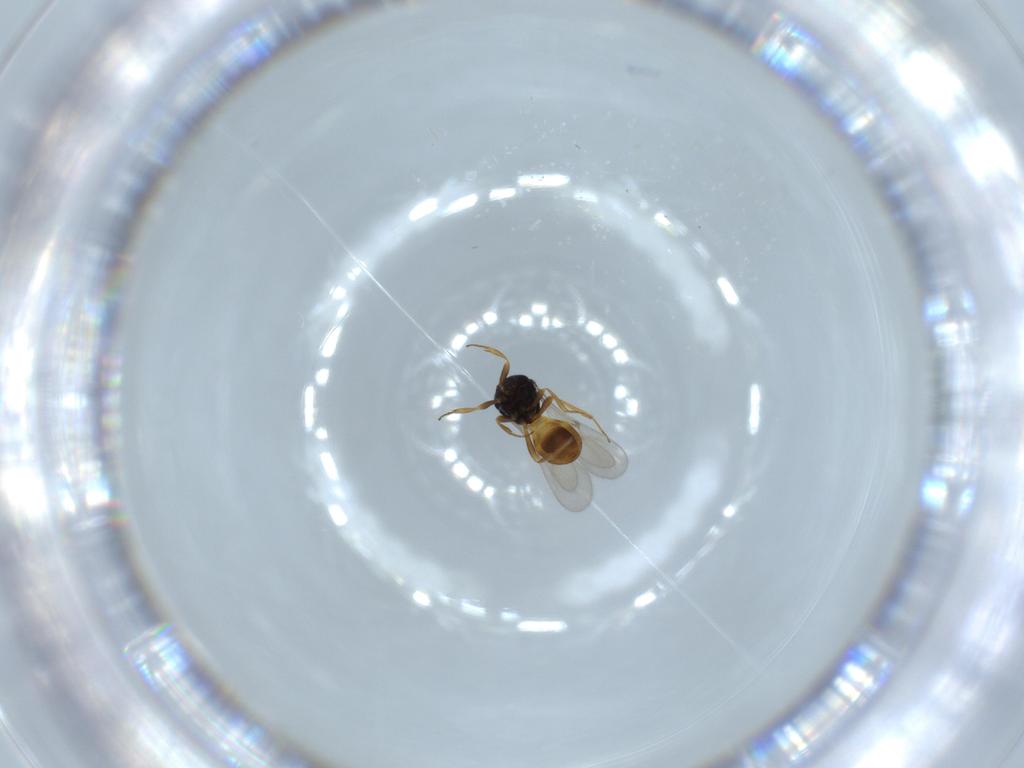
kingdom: Animalia
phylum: Arthropoda
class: Insecta
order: Hymenoptera
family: Scelionidae
